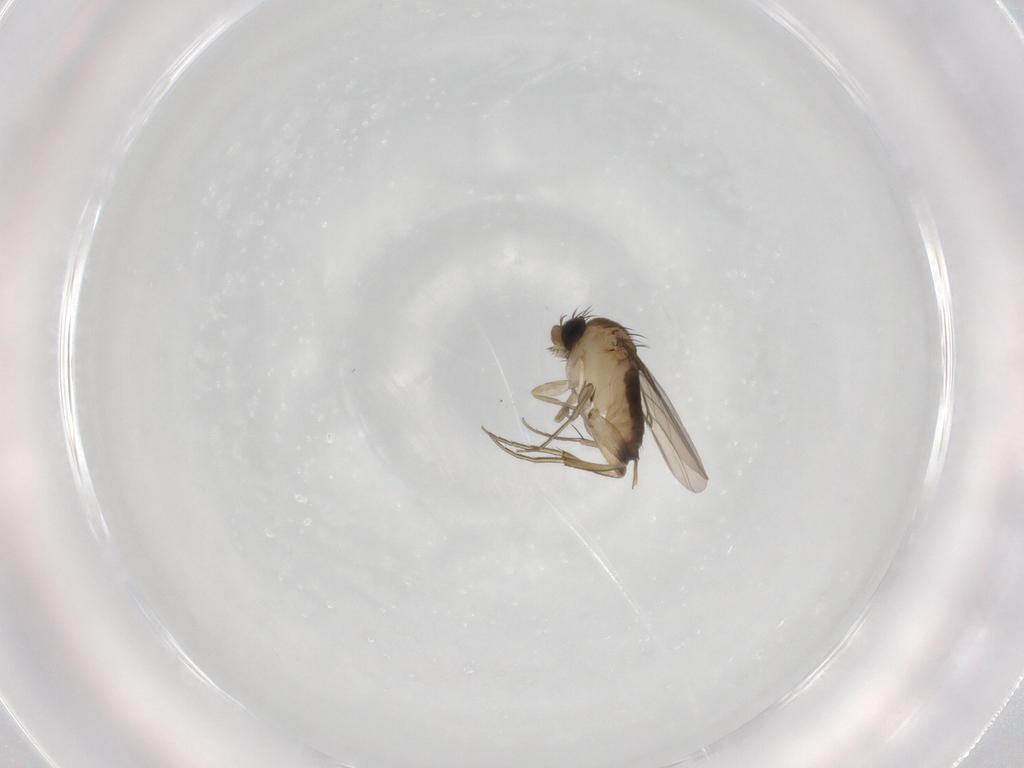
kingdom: Animalia
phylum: Arthropoda
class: Insecta
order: Diptera
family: Phoridae
